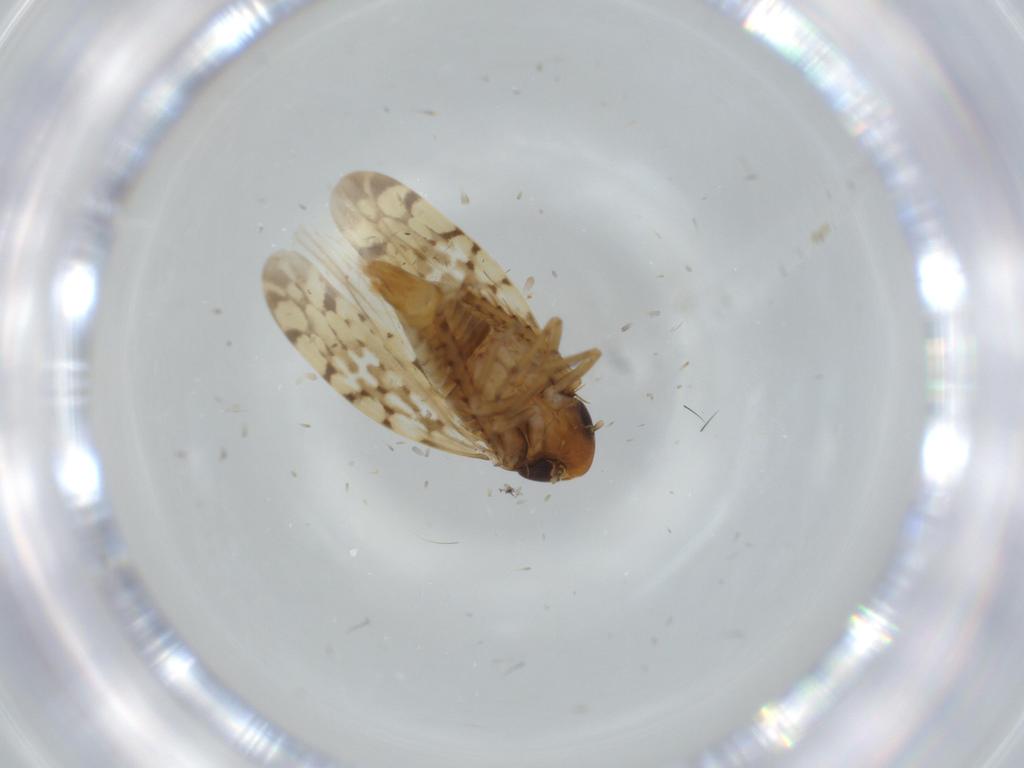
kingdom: Animalia
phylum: Arthropoda
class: Insecta
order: Hemiptera
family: Cicadellidae
